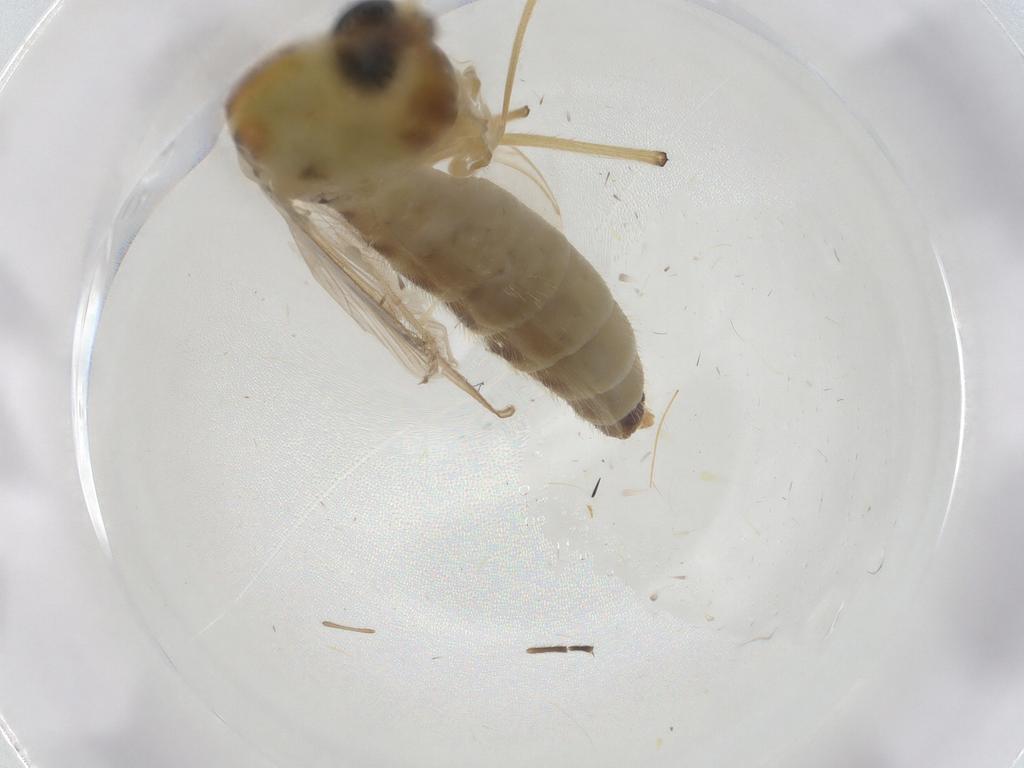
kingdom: Animalia
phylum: Arthropoda
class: Insecta
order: Diptera
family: Chironomidae
